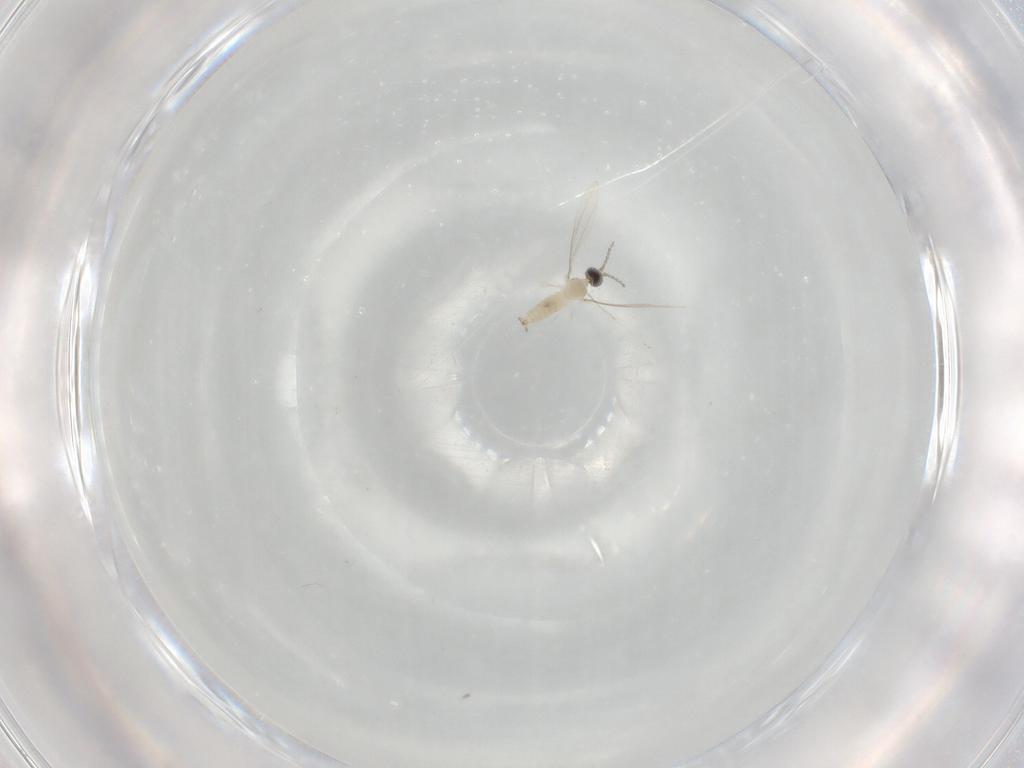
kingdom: Animalia
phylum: Arthropoda
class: Insecta
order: Diptera
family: Cecidomyiidae
